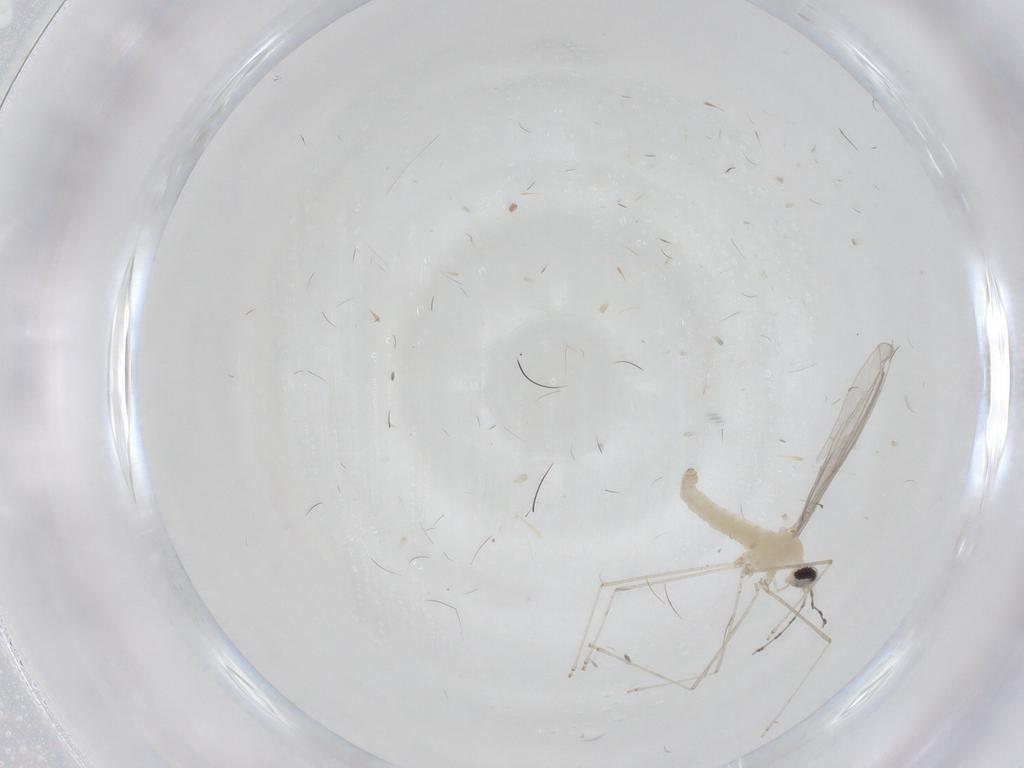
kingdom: Animalia
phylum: Arthropoda
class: Insecta
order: Diptera
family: Cecidomyiidae
